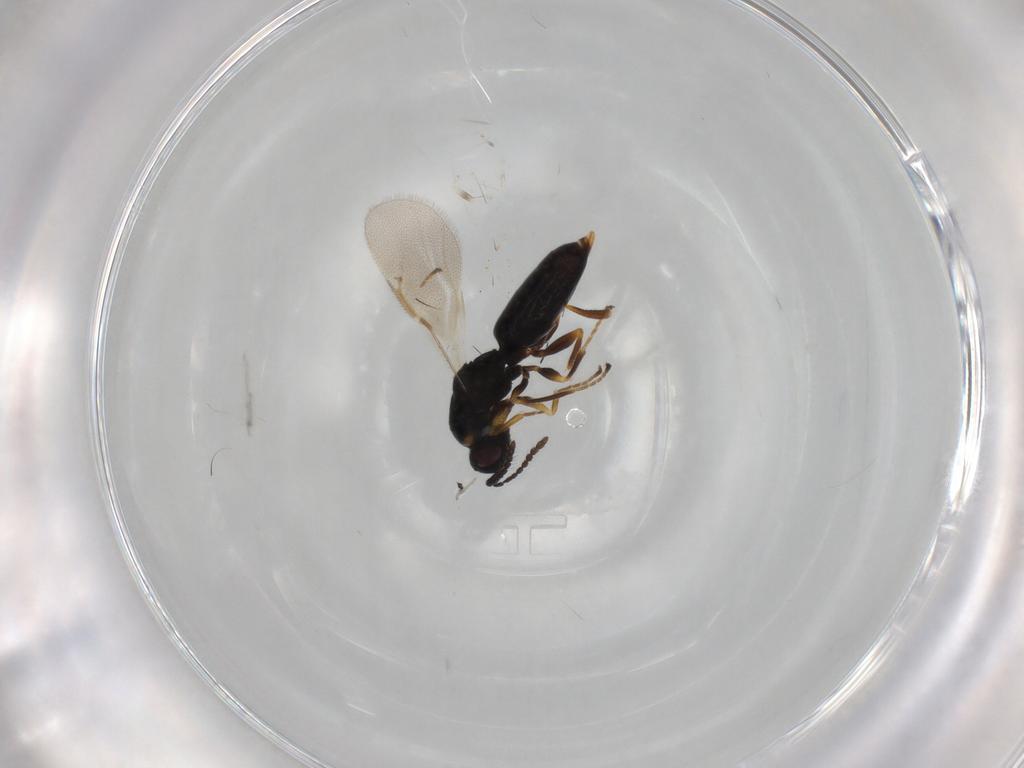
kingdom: Animalia
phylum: Arthropoda
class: Insecta
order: Hymenoptera
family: Eurytomidae
